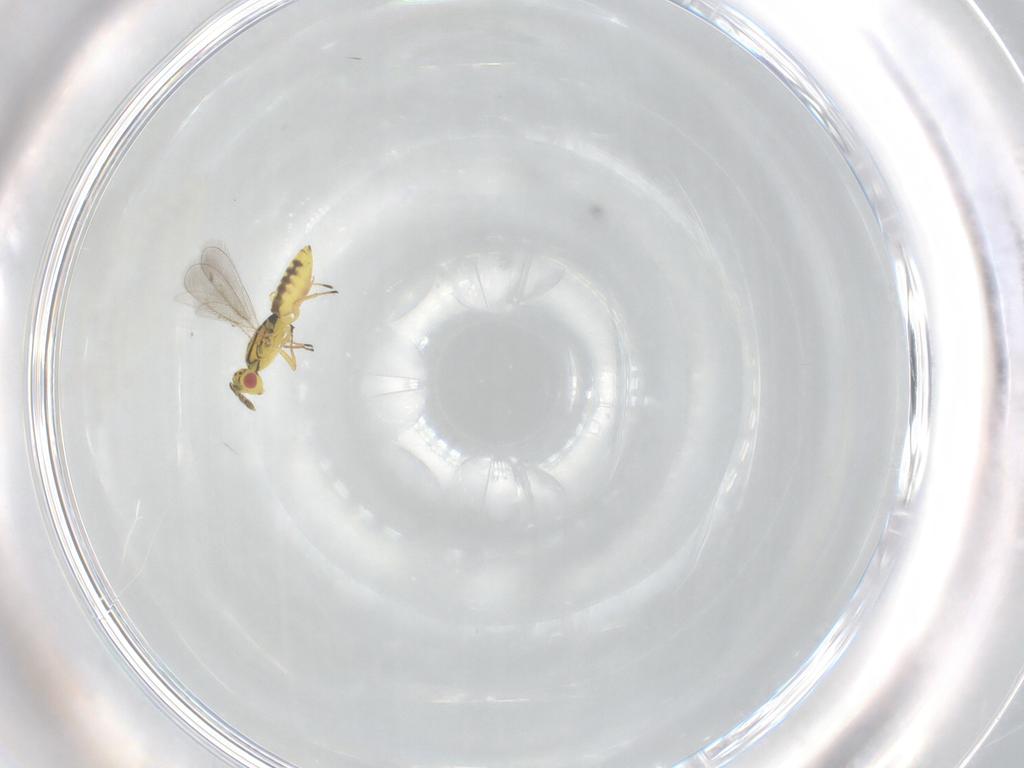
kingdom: Animalia
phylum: Arthropoda
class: Insecta
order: Hymenoptera
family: Eulophidae
